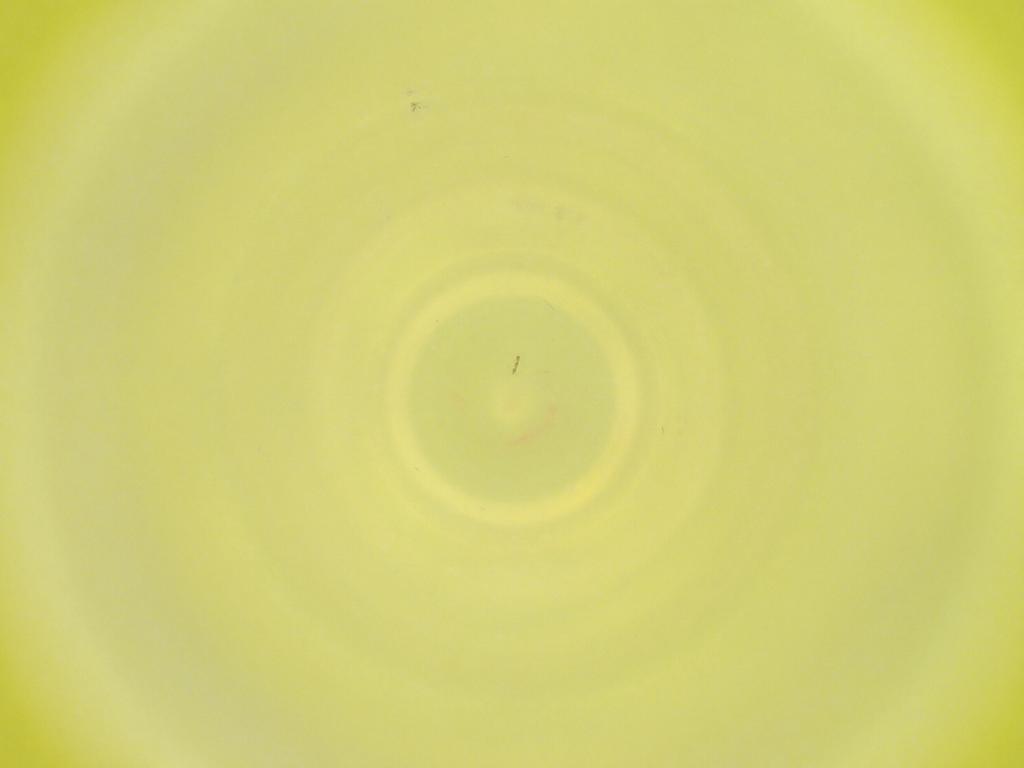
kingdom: Animalia
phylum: Arthropoda
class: Insecta
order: Diptera
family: Cecidomyiidae
